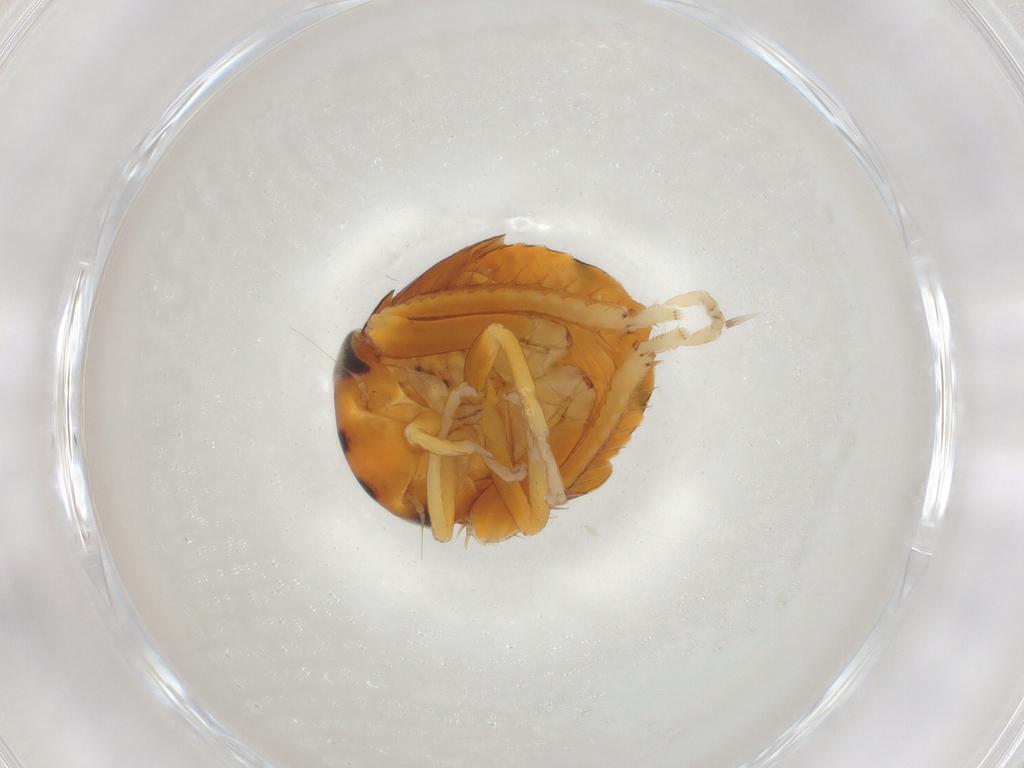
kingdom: Animalia
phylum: Arthropoda
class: Insecta
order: Hemiptera
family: Cicadellidae
